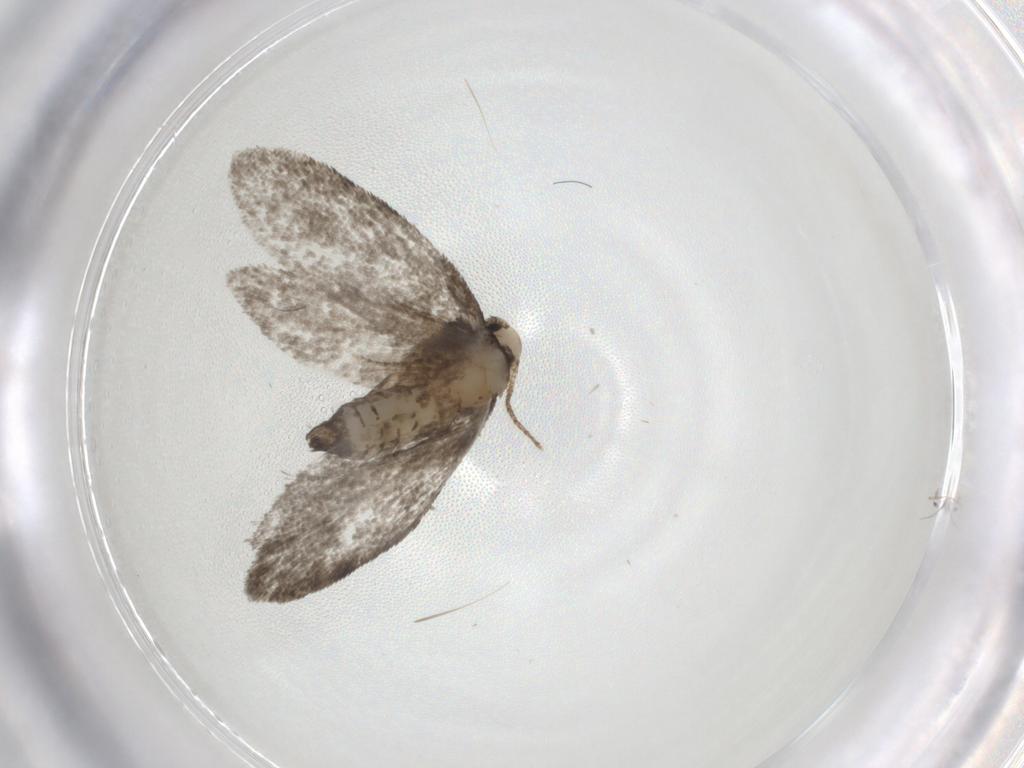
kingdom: Animalia
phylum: Arthropoda
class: Insecta
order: Lepidoptera
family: Psychidae
